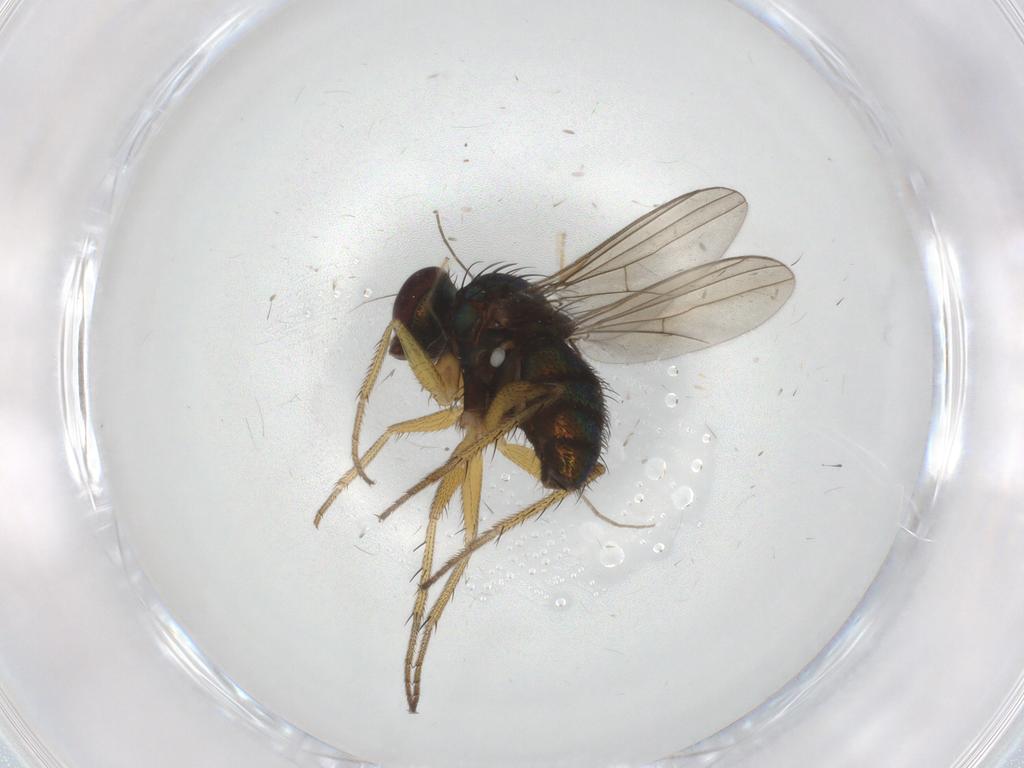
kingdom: Animalia
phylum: Arthropoda
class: Insecta
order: Diptera
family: Dolichopodidae
